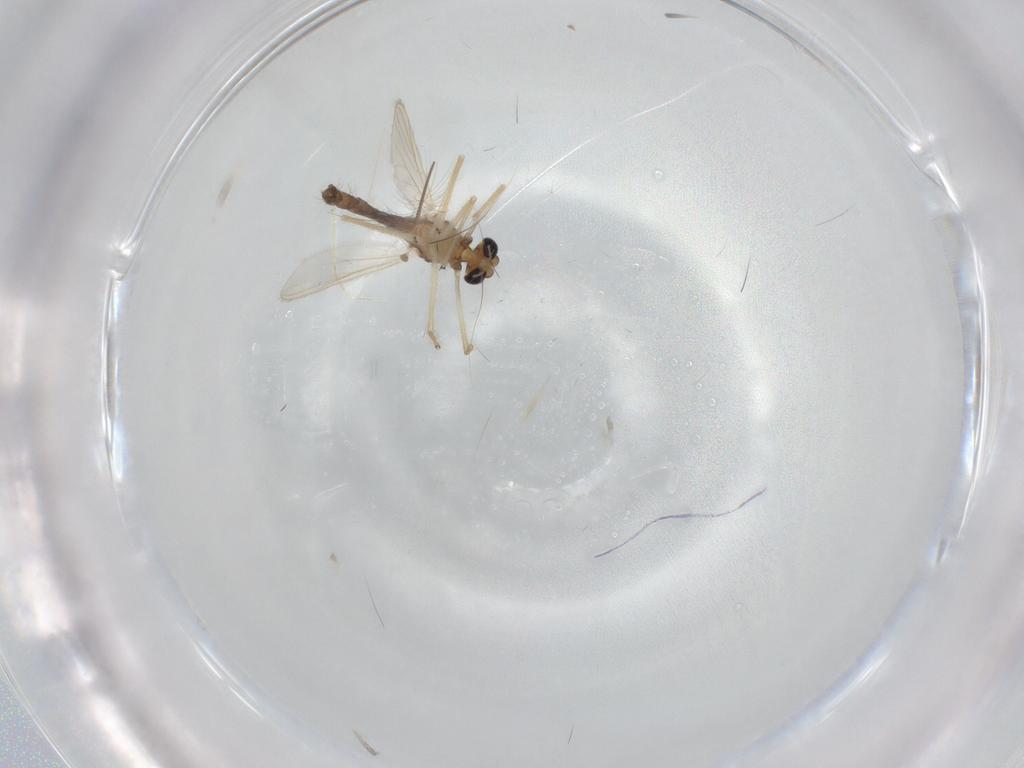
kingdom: Animalia
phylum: Arthropoda
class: Insecta
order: Diptera
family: Chironomidae
